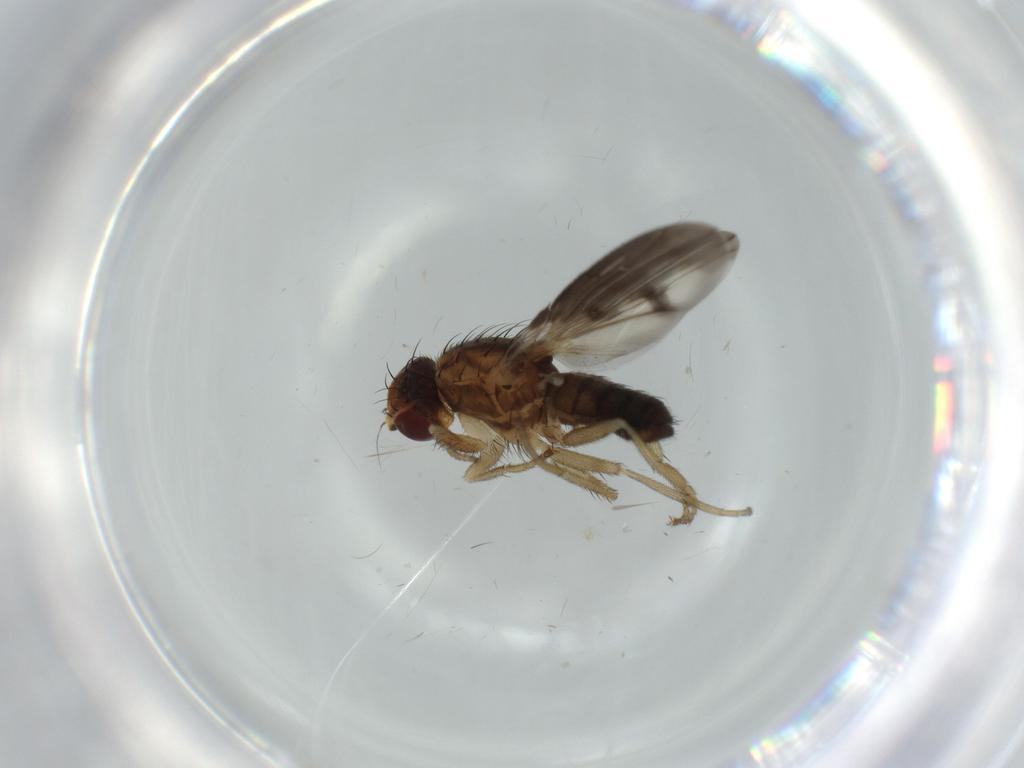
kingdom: Animalia
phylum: Arthropoda
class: Insecta
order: Diptera
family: Heleomyzidae
